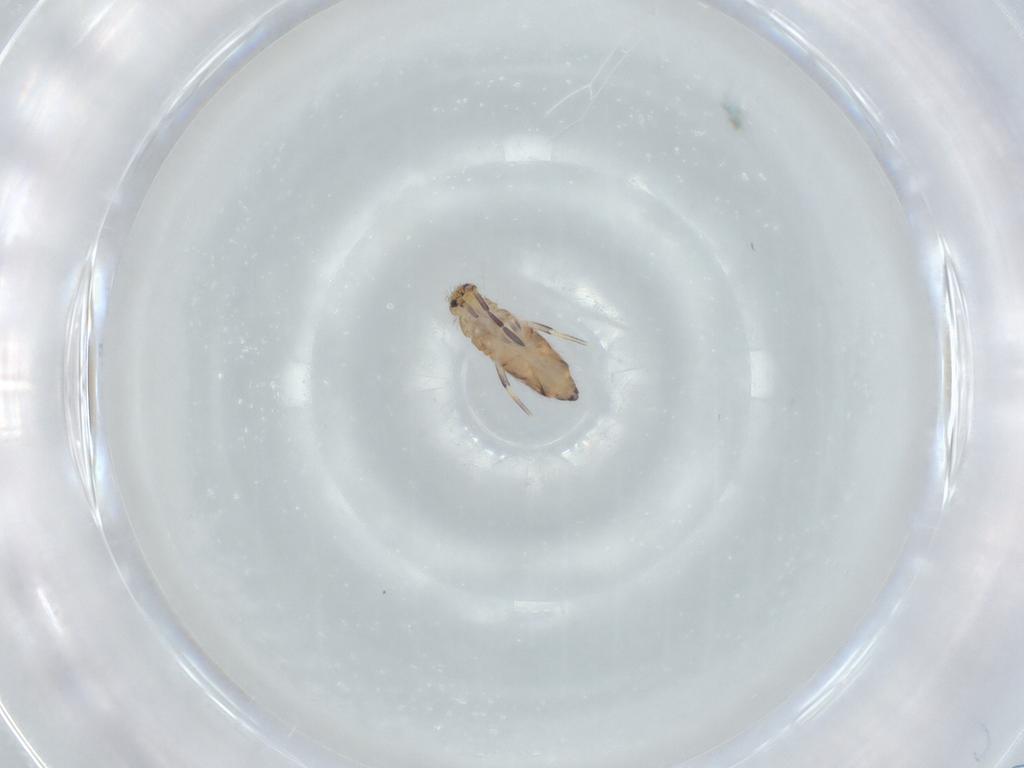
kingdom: Animalia
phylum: Arthropoda
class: Collembola
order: Entomobryomorpha
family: Entomobryidae
